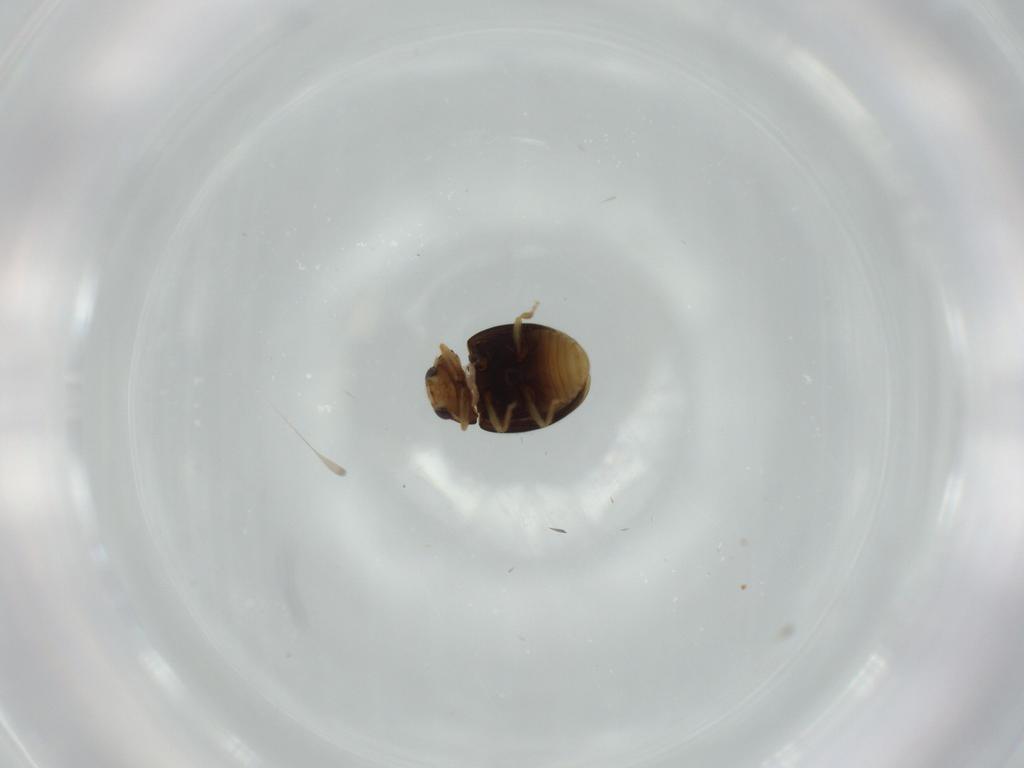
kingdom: Animalia
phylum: Arthropoda
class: Insecta
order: Coleoptera
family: Coccinellidae
